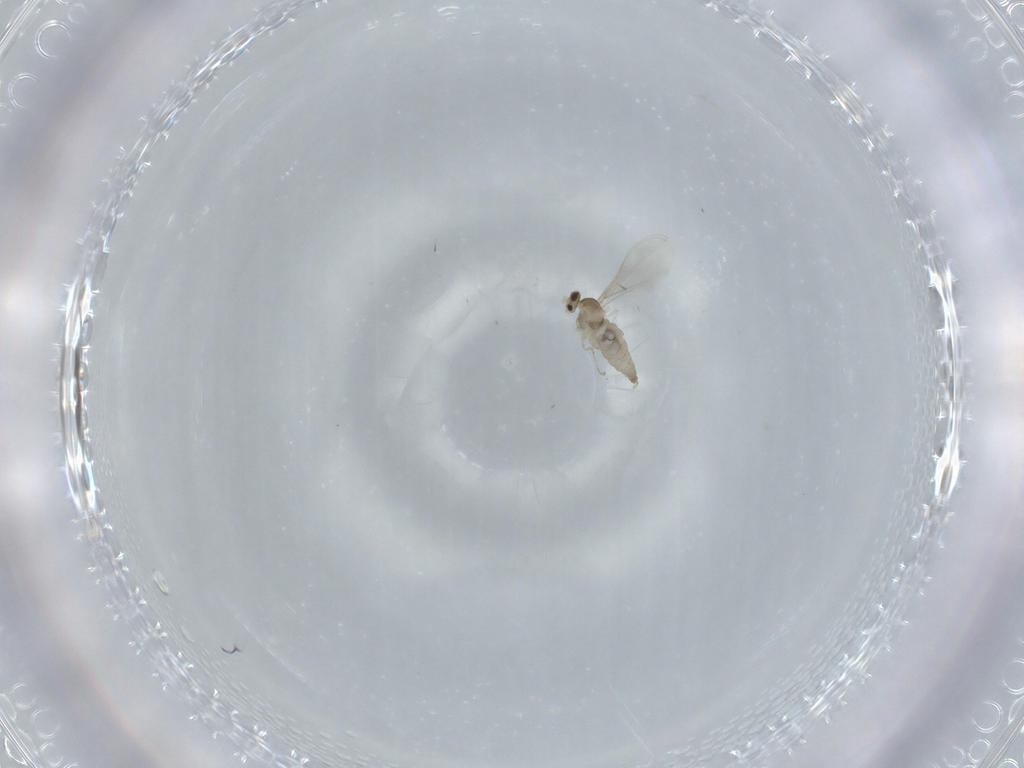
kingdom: Animalia
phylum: Arthropoda
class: Insecta
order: Diptera
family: Cecidomyiidae
